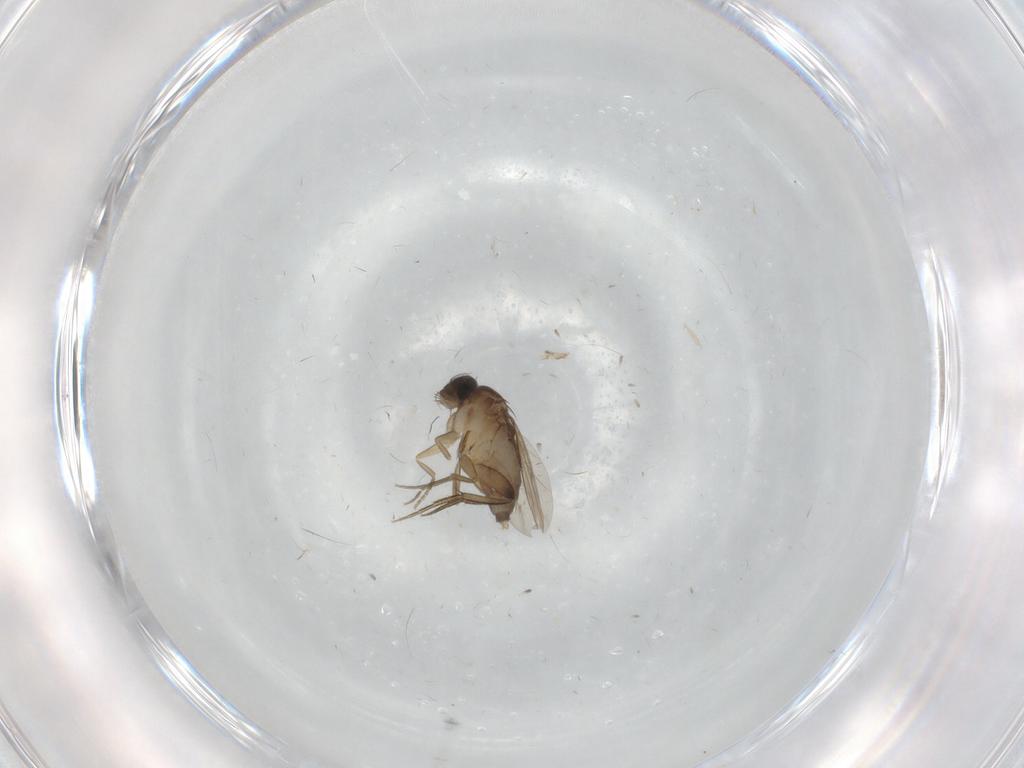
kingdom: Animalia
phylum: Arthropoda
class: Insecta
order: Diptera
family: Phoridae
